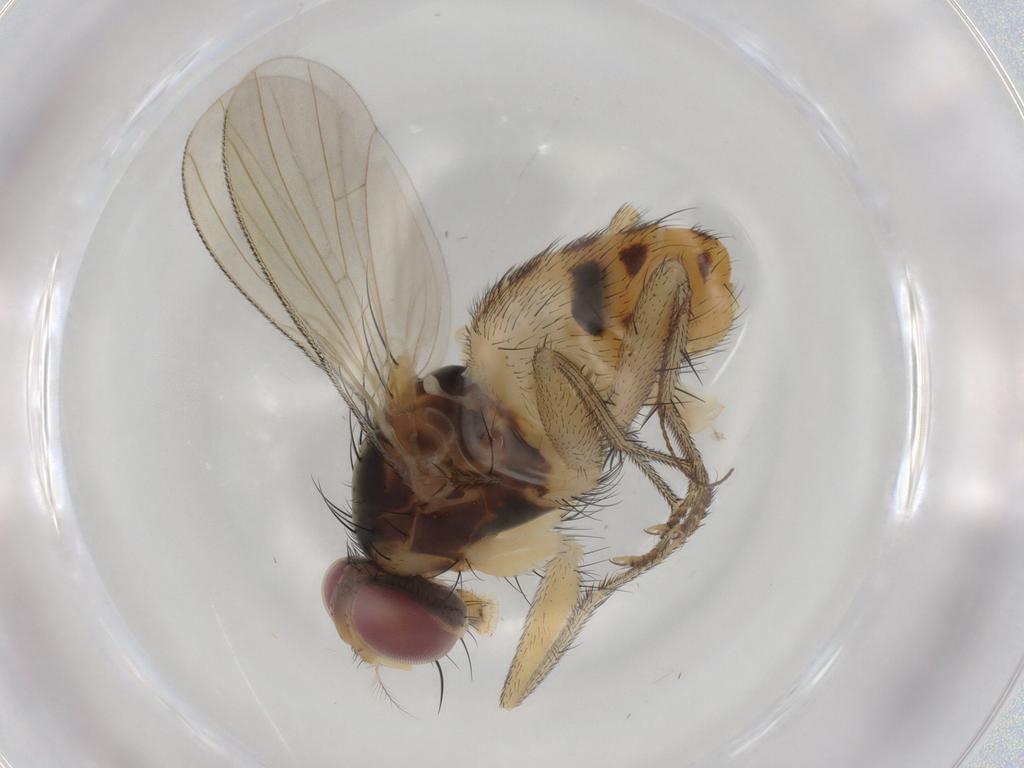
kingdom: Animalia
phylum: Arthropoda
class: Insecta
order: Diptera
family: Muscidae
